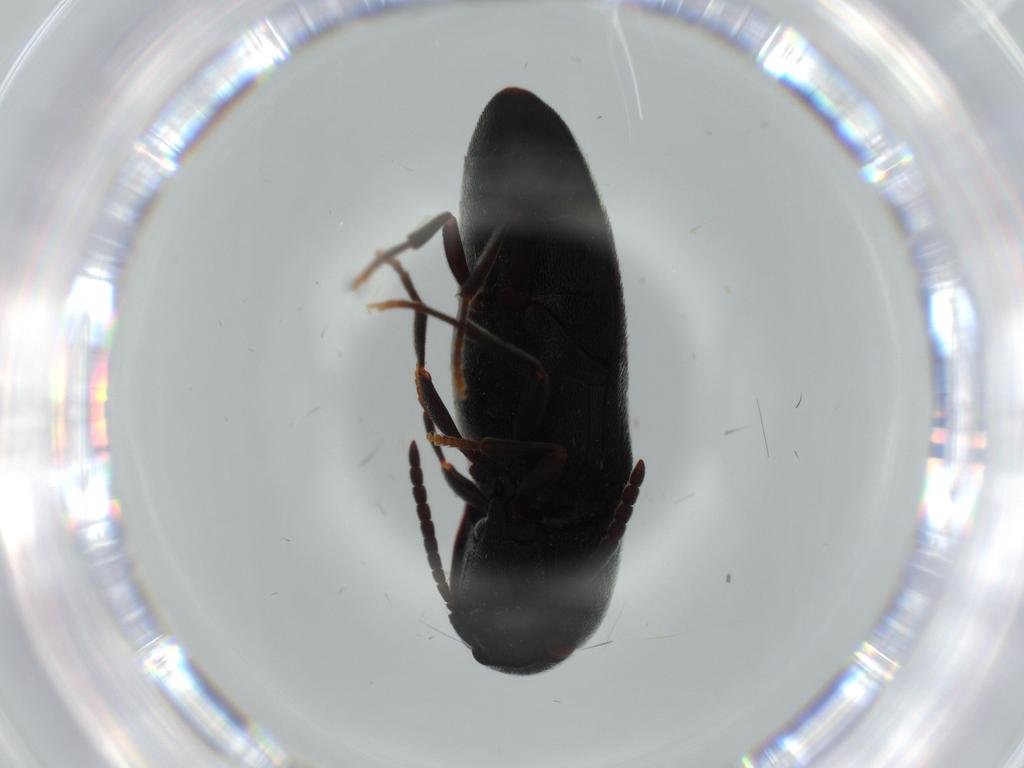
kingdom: Animalia
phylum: Arthropoda
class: Insecta
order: Coleoptera
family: Eucnemidae
